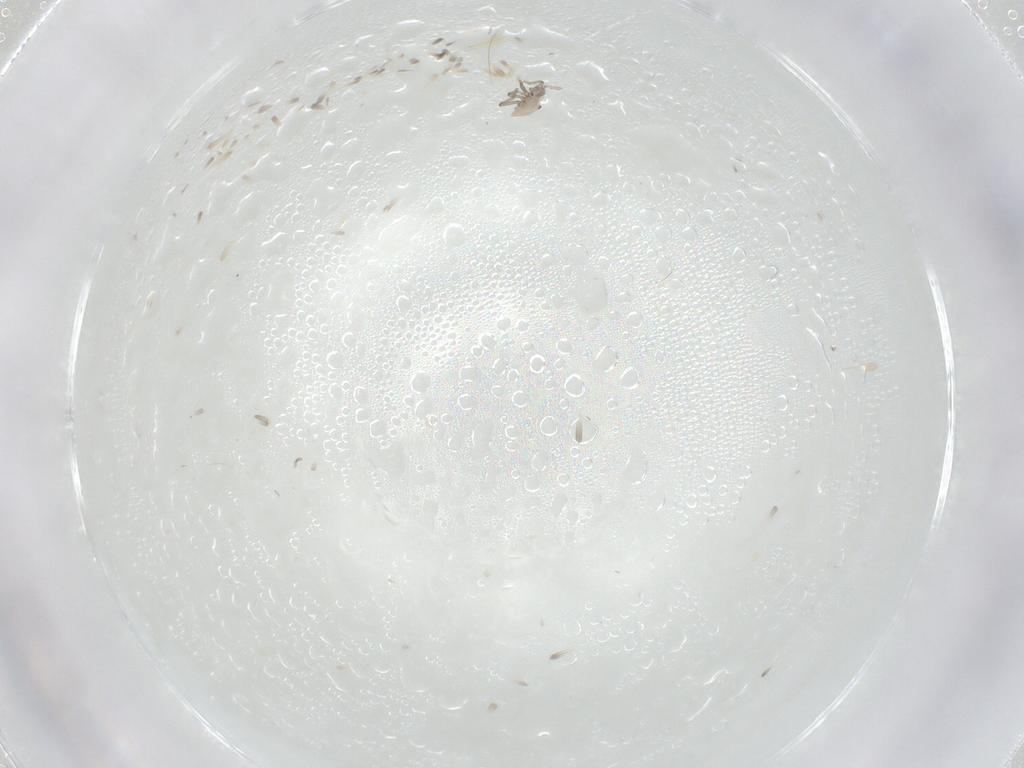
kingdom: Animalia
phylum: Arthropoda
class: Insecta
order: Hemiptera
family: Aphididae
